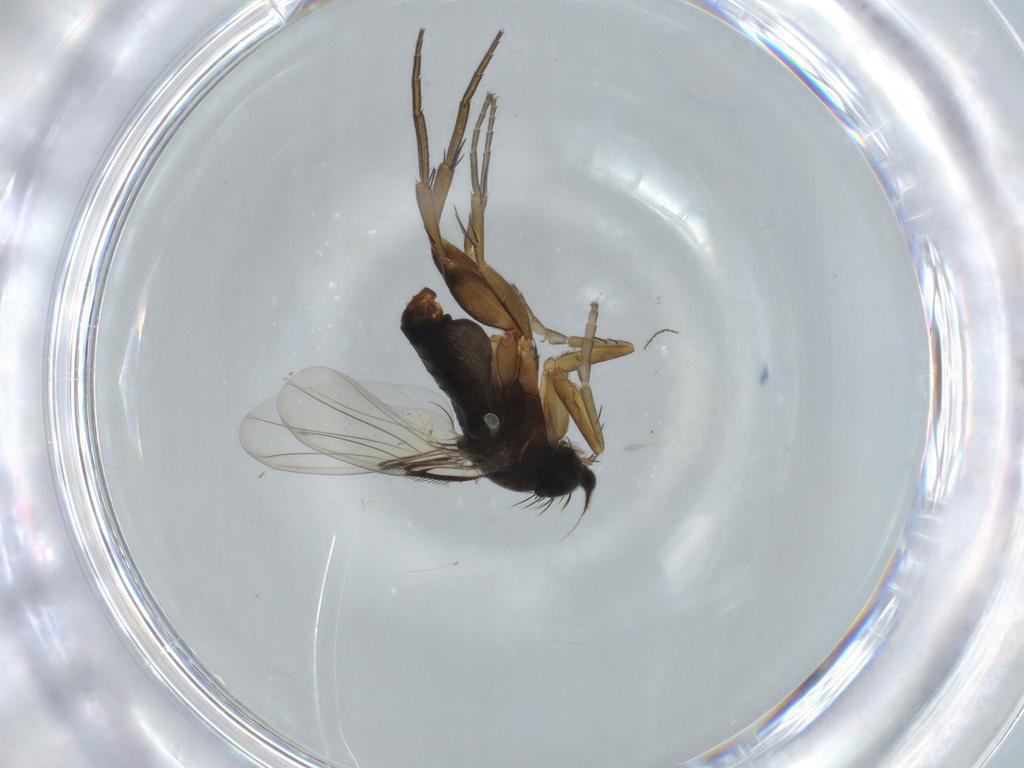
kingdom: Animalia
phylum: Arthropoda
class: Insecta
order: Diptera
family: Phoridae
